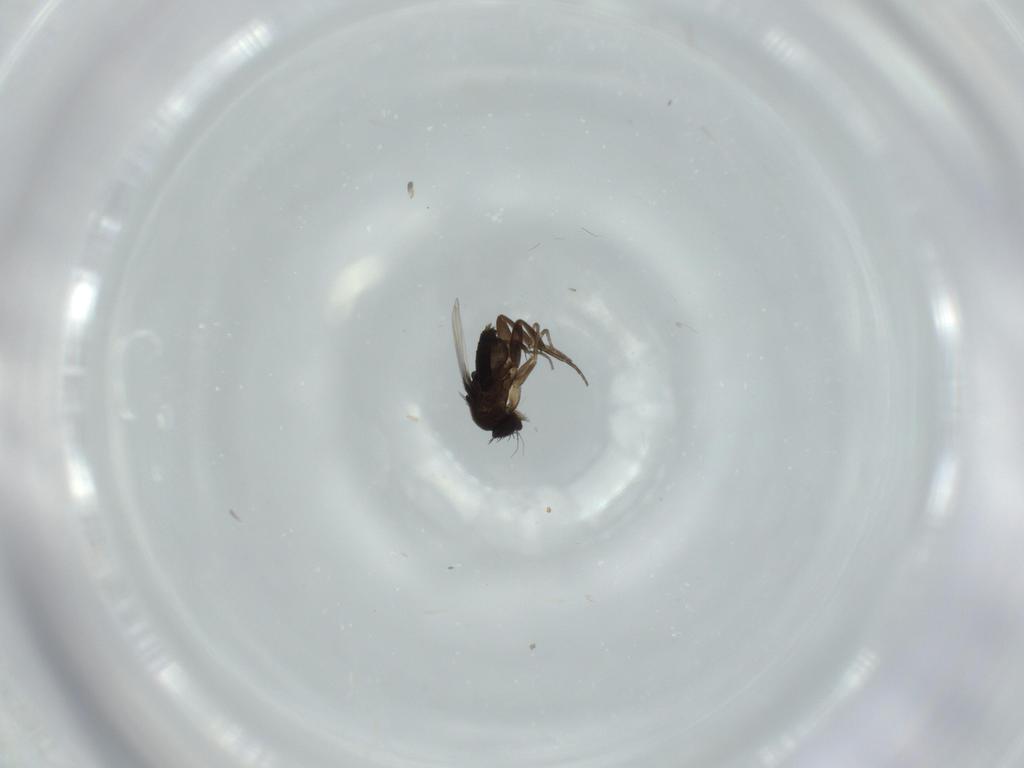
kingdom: Animalia
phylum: Arthropoda
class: Insecta
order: Diptera
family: Phoridae
